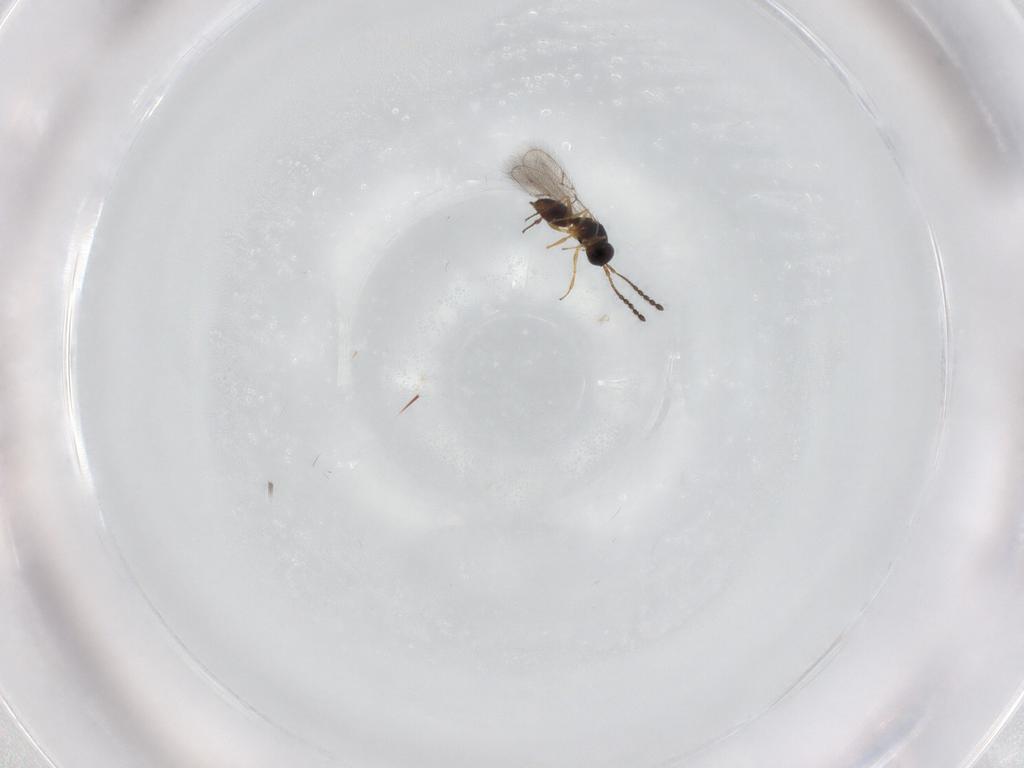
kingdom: Animalia
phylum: Arthropoda
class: Insecta
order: Hymenoptera
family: Figitidae
